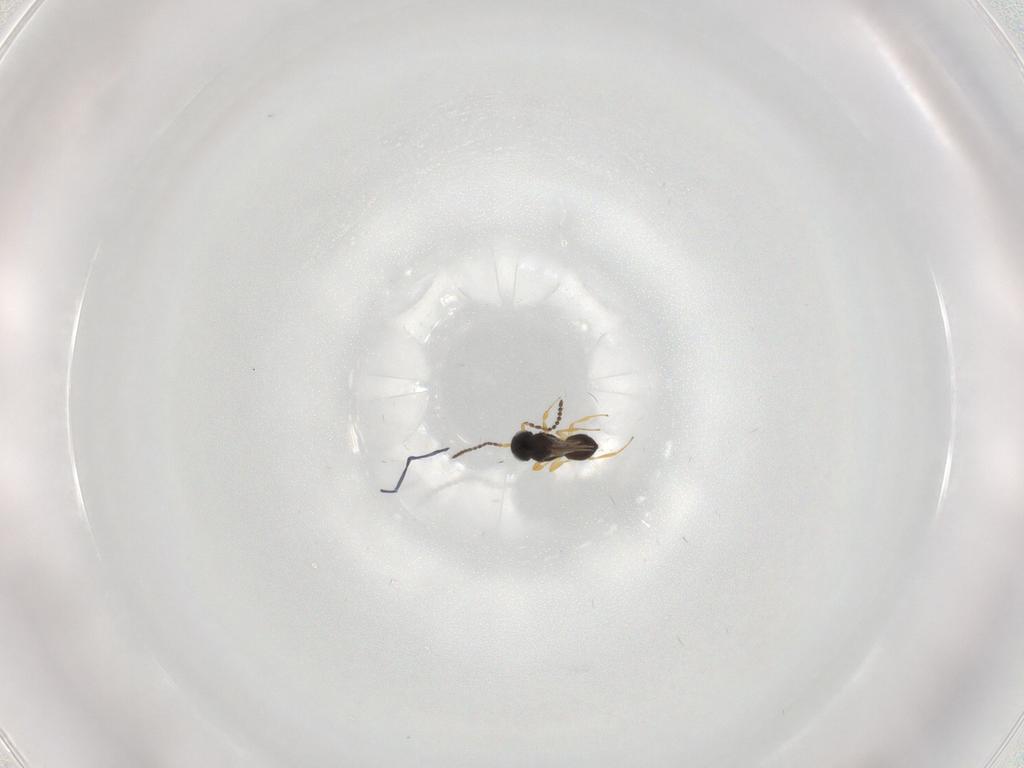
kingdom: Animalia
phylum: Arthropoda
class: Insecta
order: Hymenoptera
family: Scelionidae
